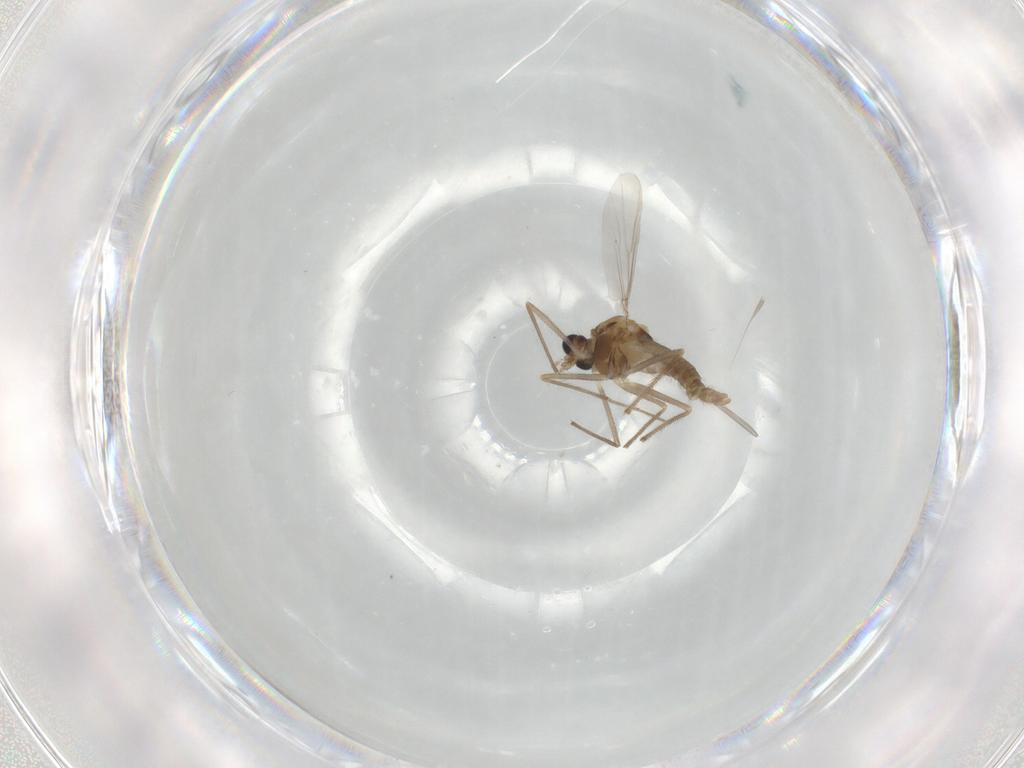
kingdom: Animalia
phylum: Arthropoda
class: Insecta
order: Diptera
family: Chironomidae
